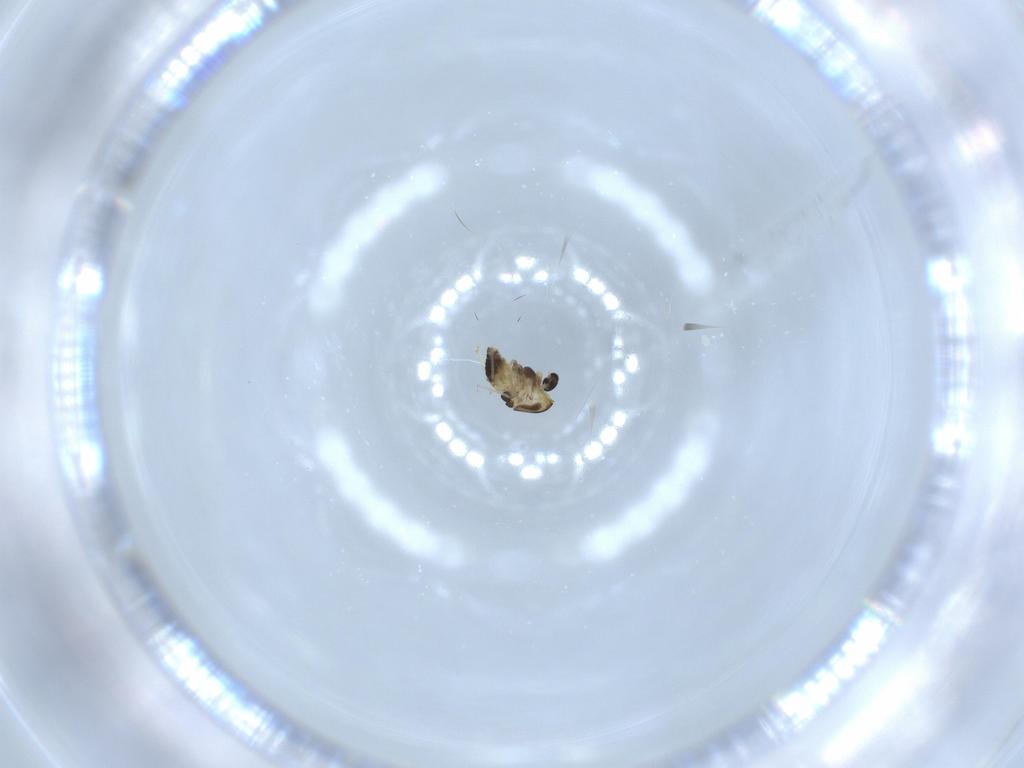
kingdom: Animalia
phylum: Arthropoda
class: Insecta
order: Diptera
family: Chironomidae
